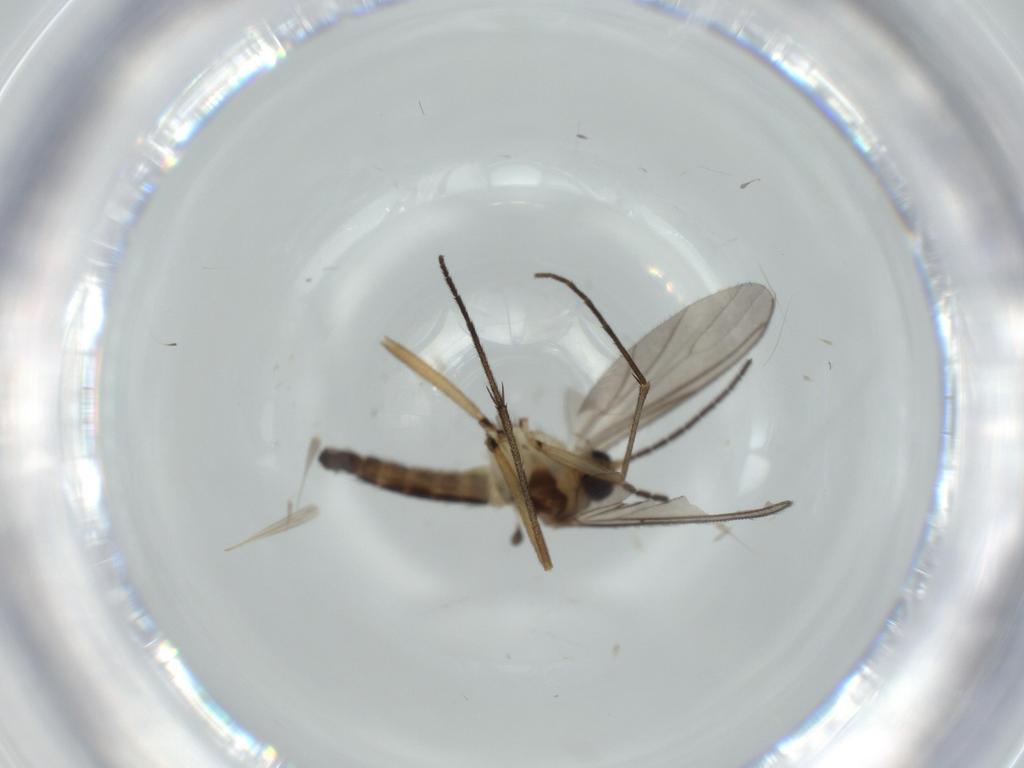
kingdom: Animalia
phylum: Arthropoda
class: Insecta
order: Diptera
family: Sciaridae
